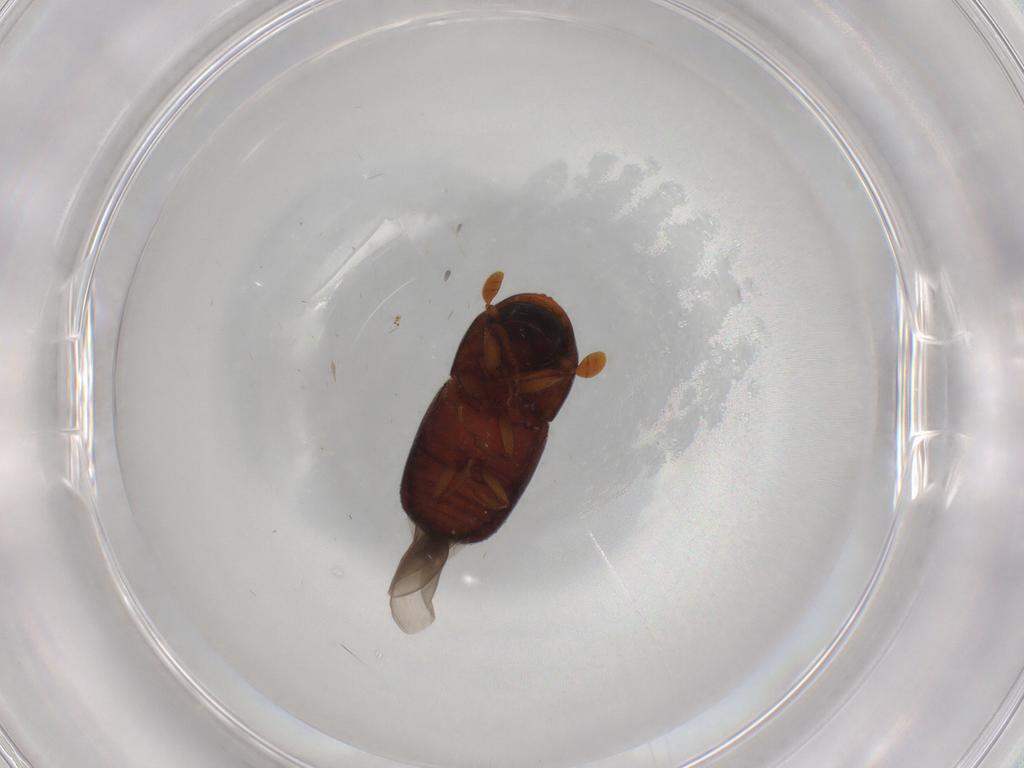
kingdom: Animalia
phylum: Arthropoda
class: Insecta
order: Coleoptera
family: Curculionidae
